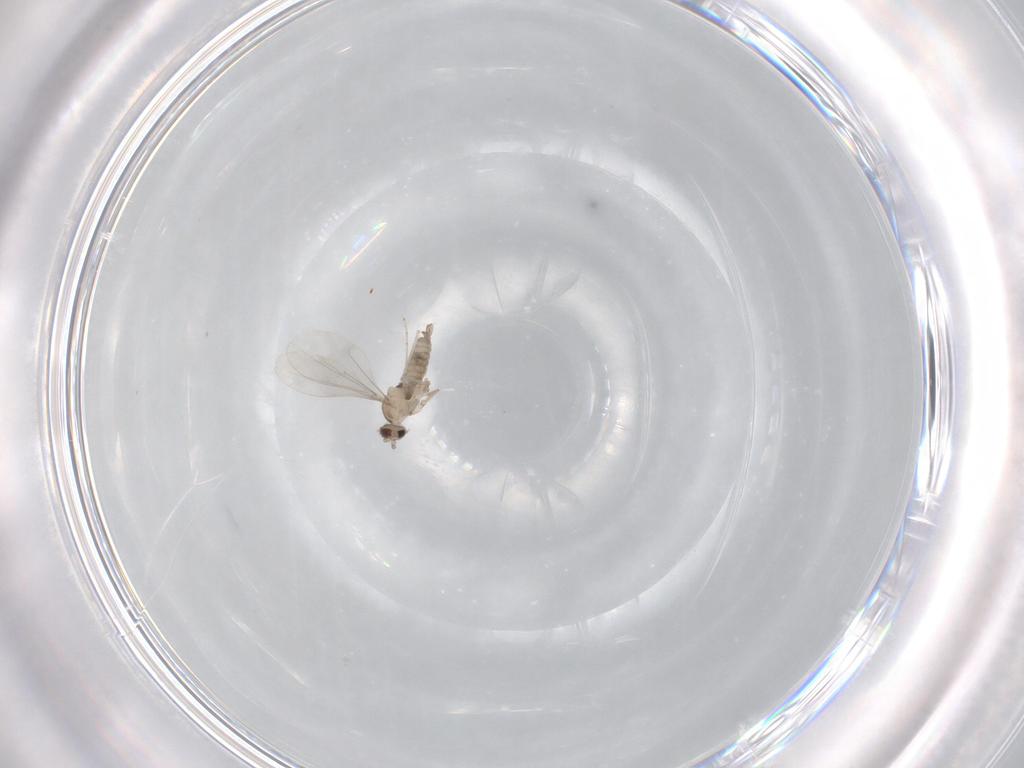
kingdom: Animalia
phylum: Arthropoda
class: Insecta
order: Diptera
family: Cecidomyiidae
